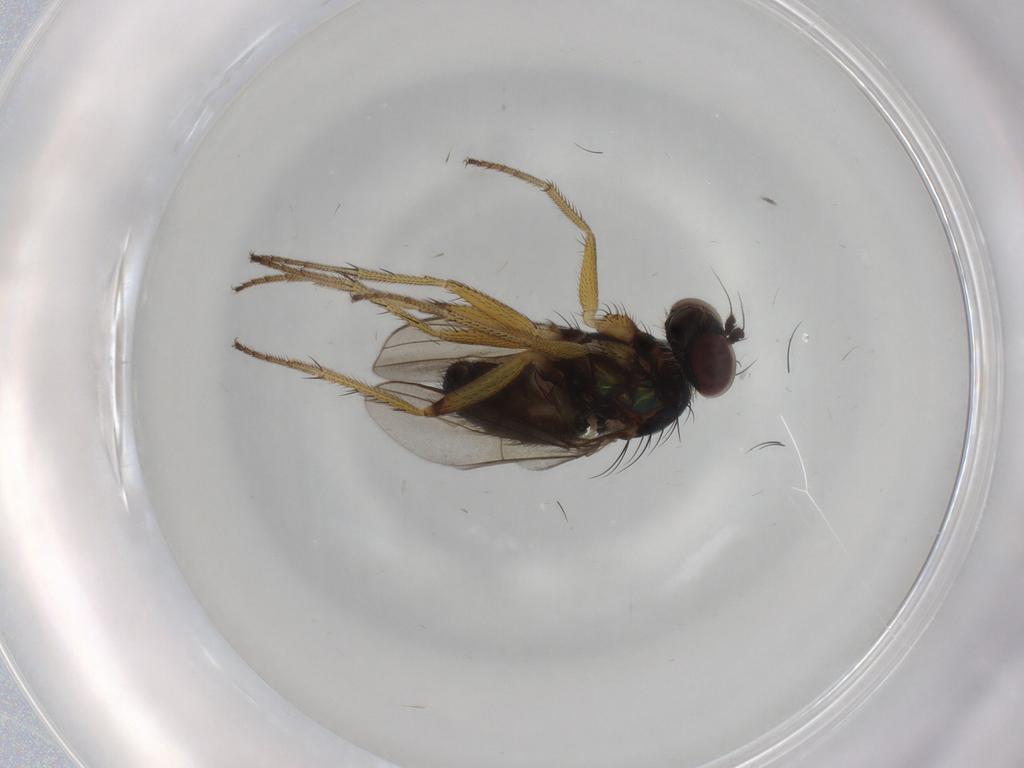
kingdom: Animalia
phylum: Arthropoda
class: Insecta
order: Diptera
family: Dolichopodidae
